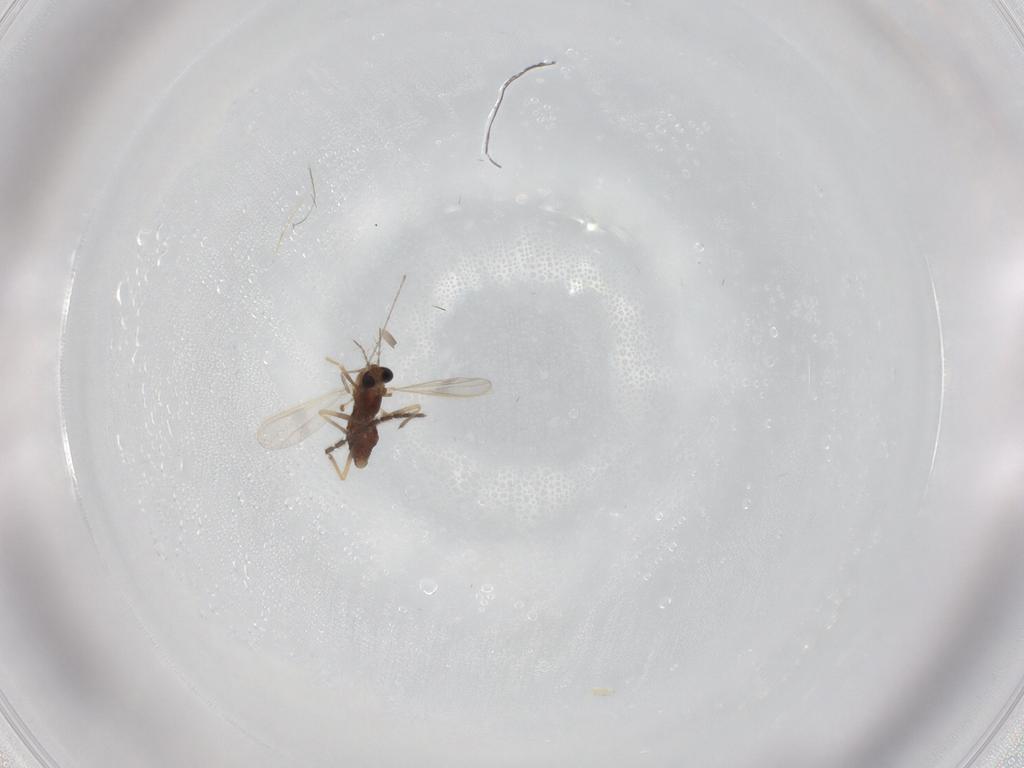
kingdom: Animalia
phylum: Arthropoda
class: Insecta
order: Diptera
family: Chironomidae
